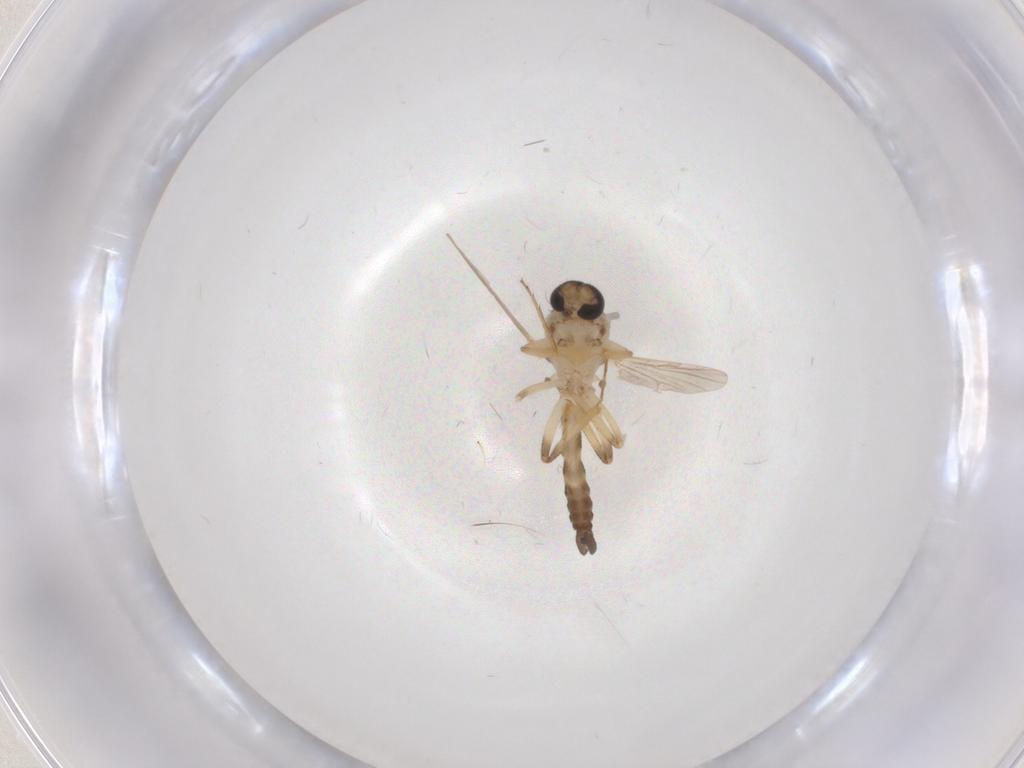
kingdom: Animalia
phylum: Arthropoda
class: Insecta
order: Diptera
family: Ceratopogonidae
